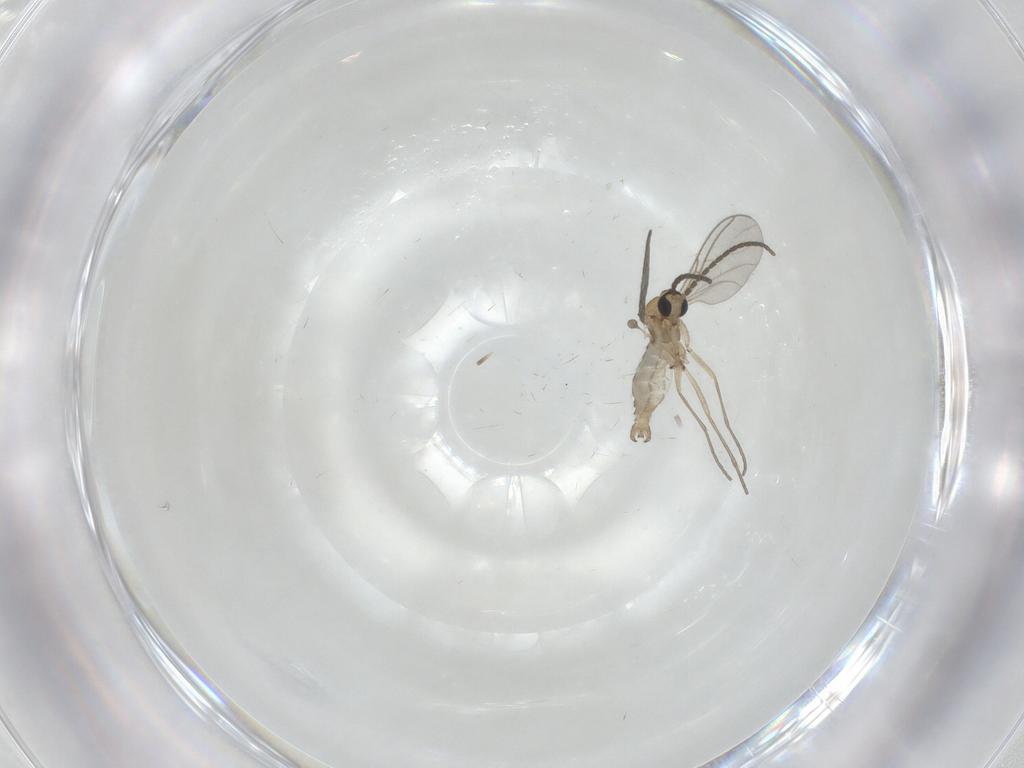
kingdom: Animalia
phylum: Arthropoda
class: Insecta
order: Diptera
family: Sciaridae
